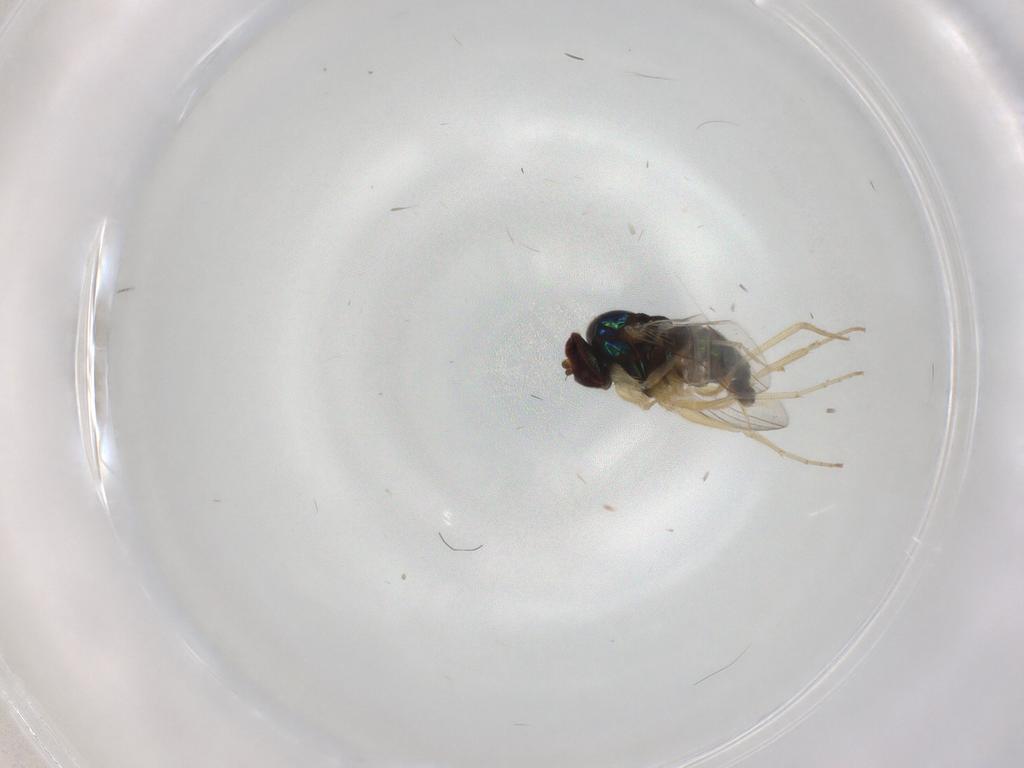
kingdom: Animalia
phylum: Arthropoda
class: Insecta
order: Diptera
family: Dolichopodidae
